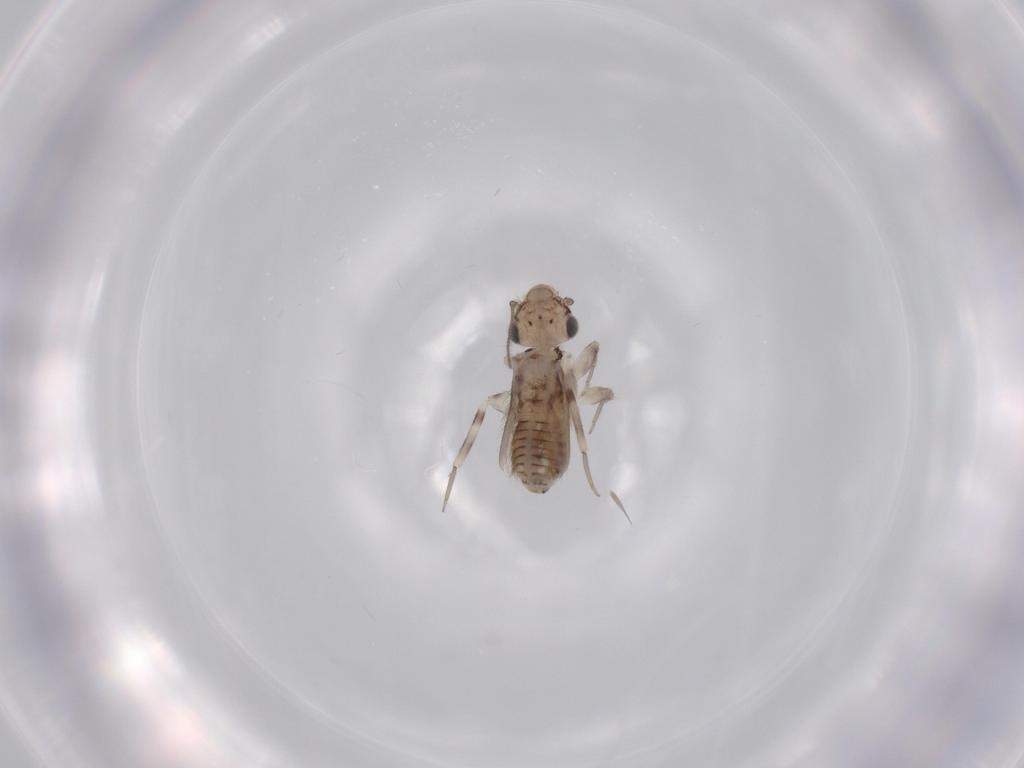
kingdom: Animalia
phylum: Arthropoda
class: Insecta
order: Psocodea
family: Lepidopsocidae
